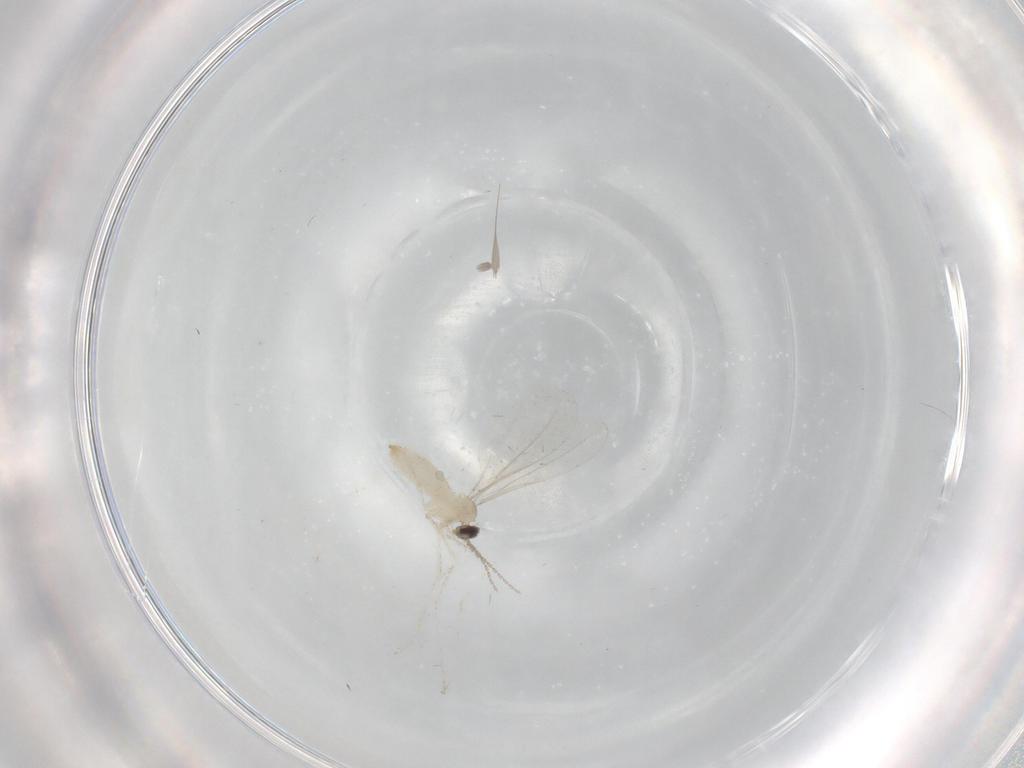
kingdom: Animalia
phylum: Arthropoda
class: Insecta
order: Diptera
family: Cecidomyiidae
